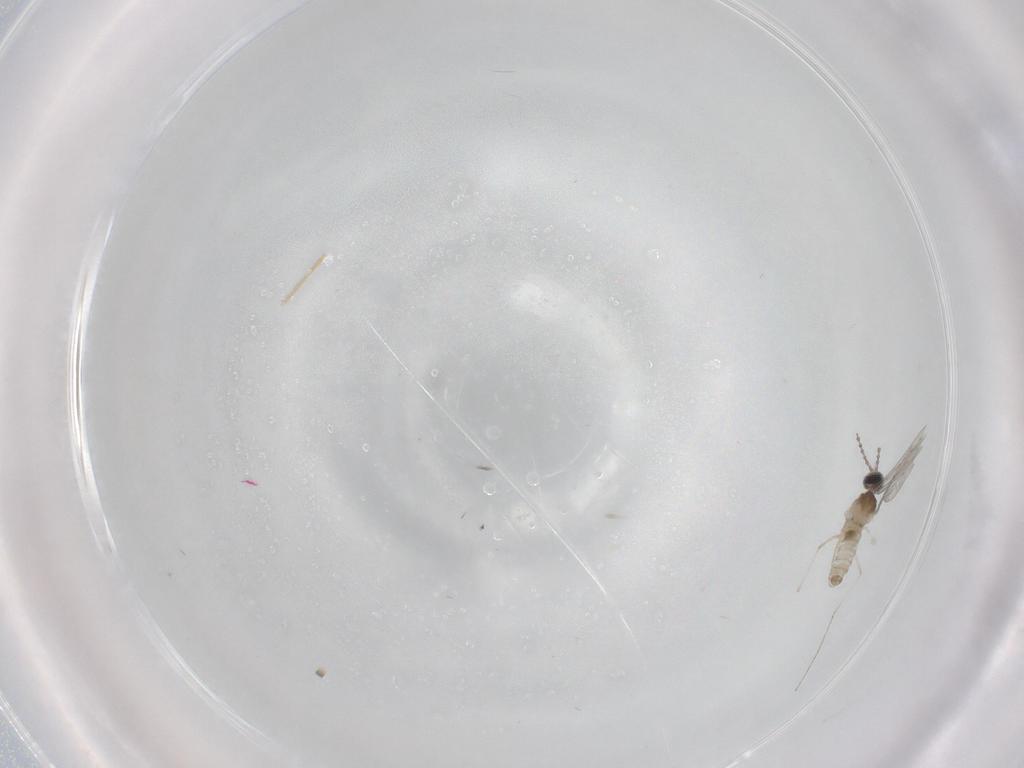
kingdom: Animalia
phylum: Arthropoda
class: Insecta
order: Diptera
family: Cecidomyiidae
